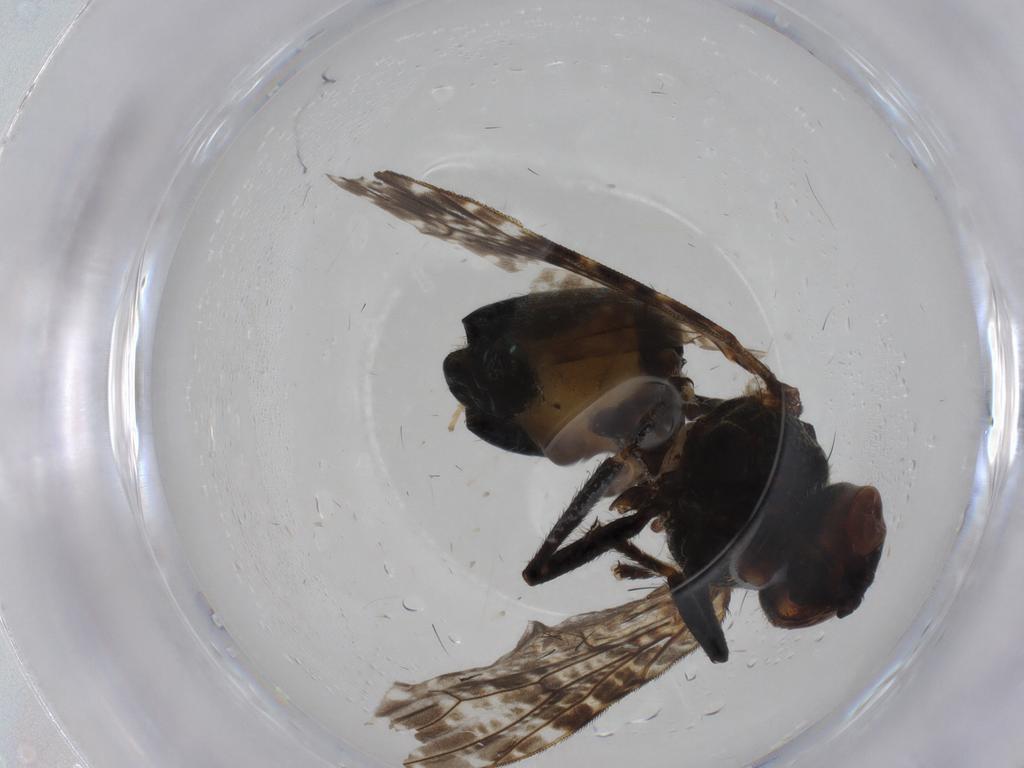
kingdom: Animalia
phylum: Arthropoda
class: Insecta
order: Diptera
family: Platystomatidae
